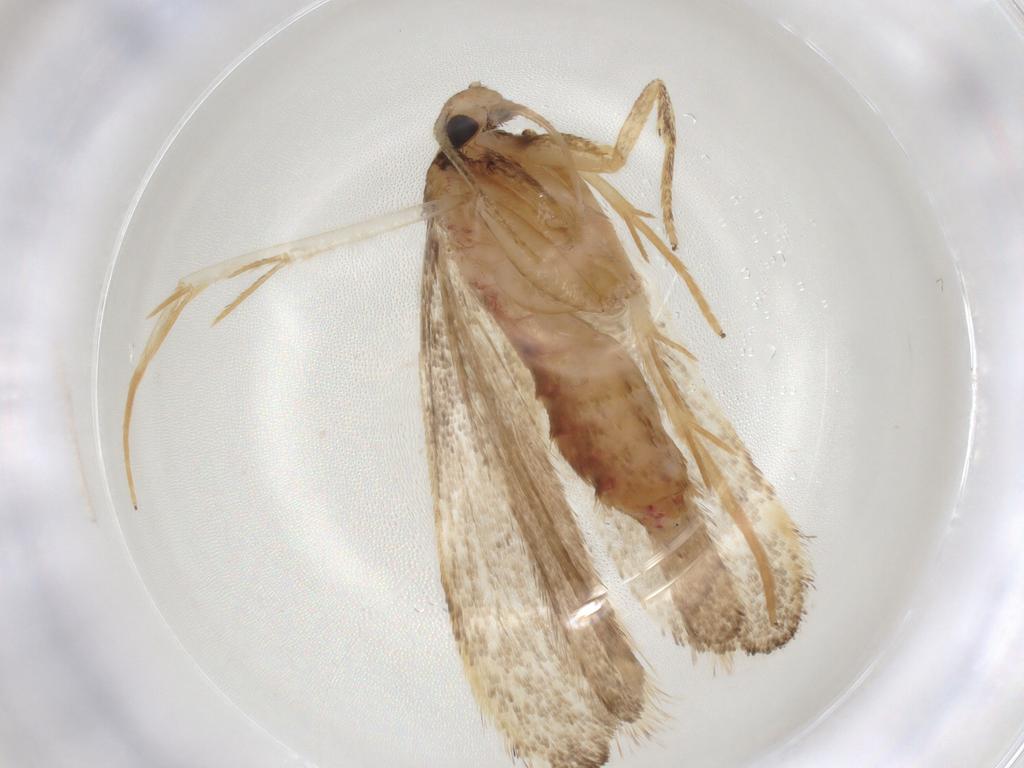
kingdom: Animalia
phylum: Arthropoda
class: Insecta
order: Lepidoptera
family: Lecithoceridae
